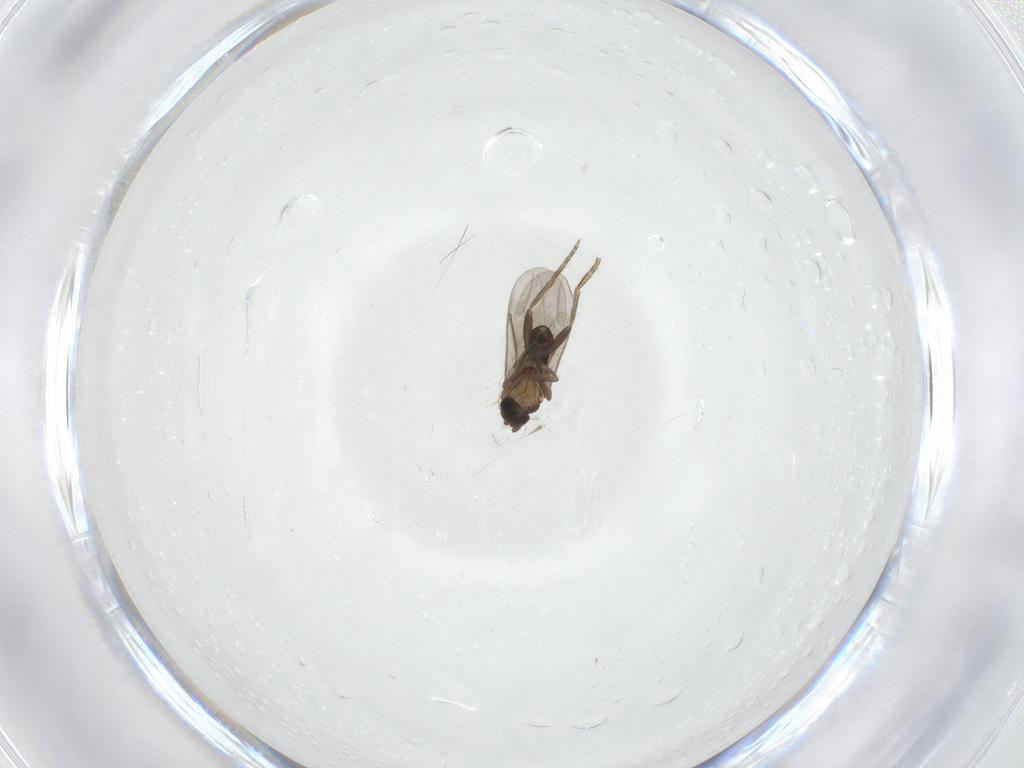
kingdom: Animalia
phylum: Arthropoda
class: Insecta
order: Diptera
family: Phoridae
